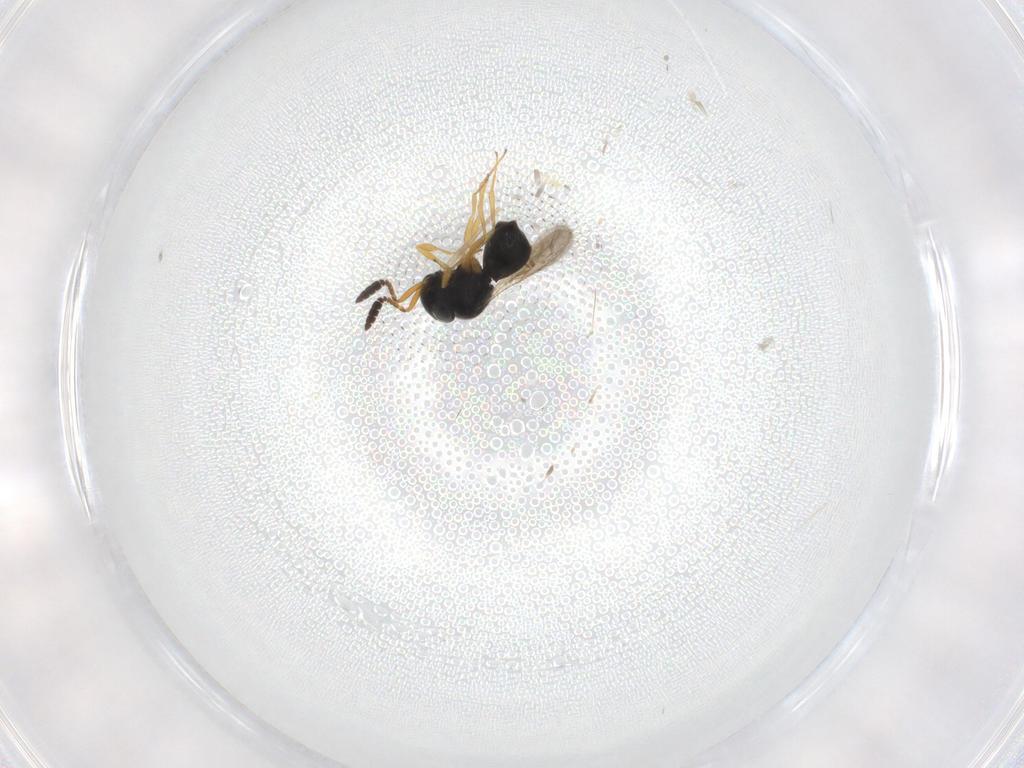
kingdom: Animalia
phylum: Arthropoda
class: Insecta
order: Hymenoptera
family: Scelionidae
